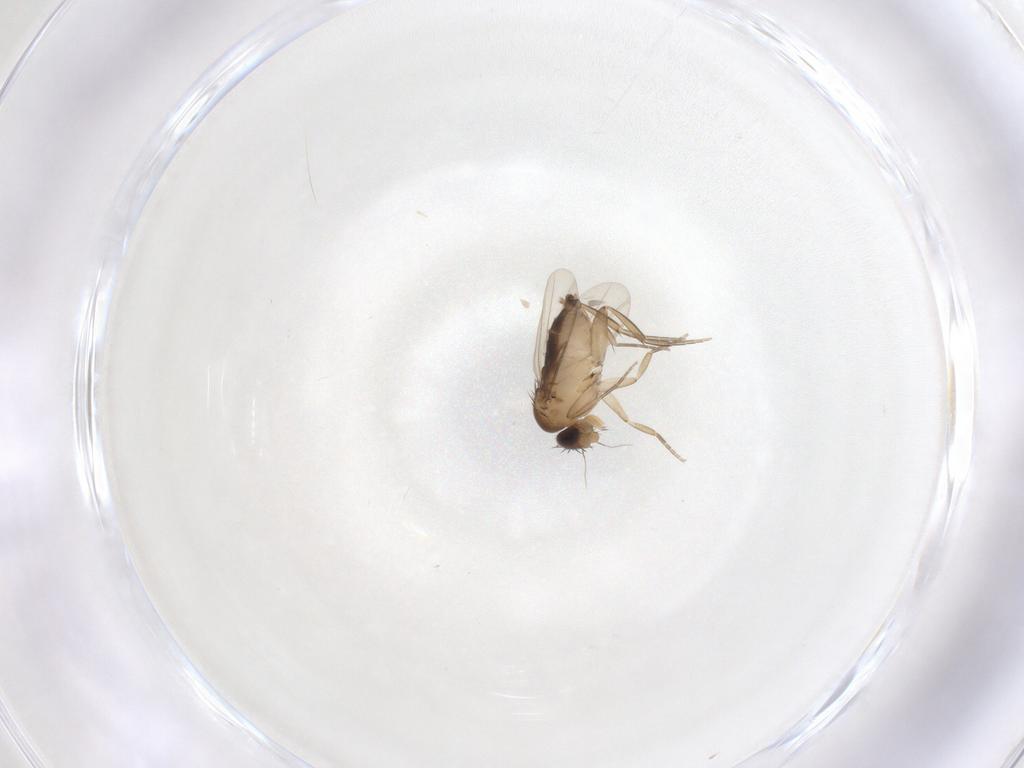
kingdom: Animalia
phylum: Arthropoda
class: Insecta
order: Diptera
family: Phoridae
